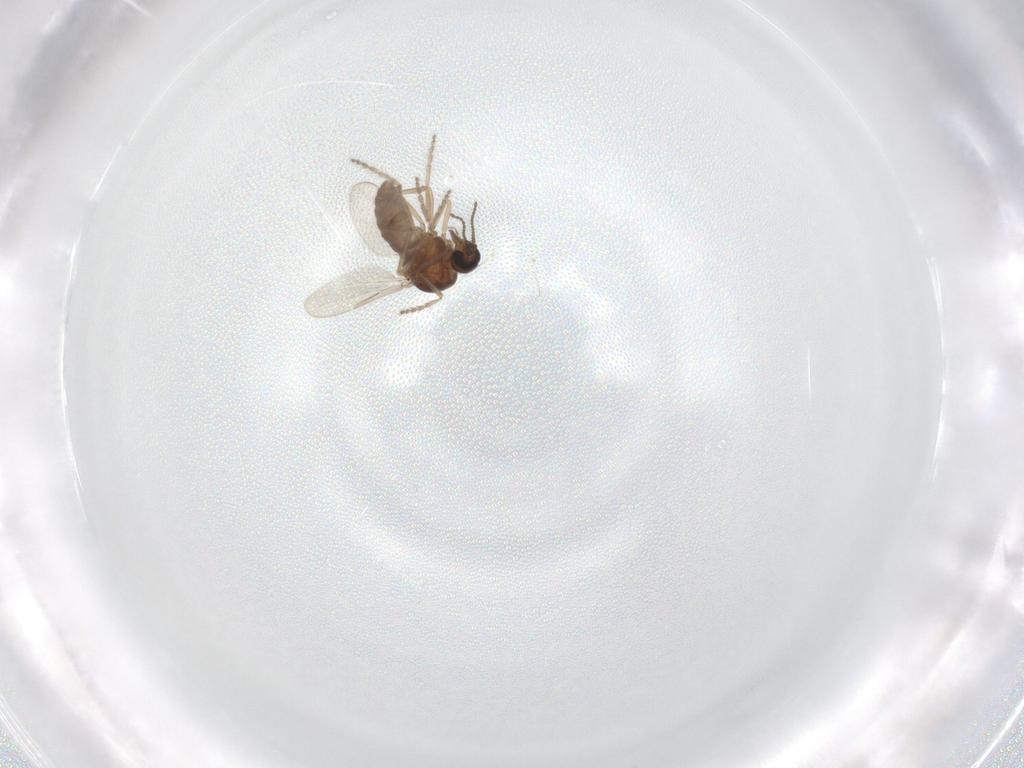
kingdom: Animalia
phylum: Arthropoda
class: Insecta
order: Diptera
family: Ceratopogonidae
